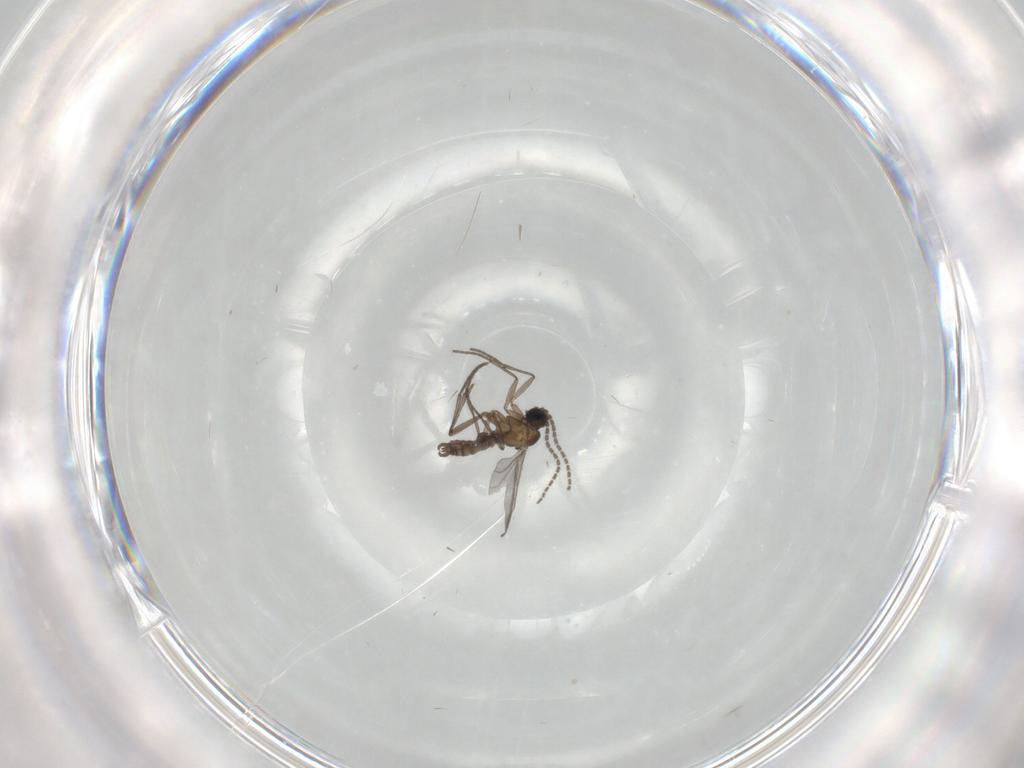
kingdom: Animalia
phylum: Arthropoda
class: Insecta
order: Diptera
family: Sciaridae
